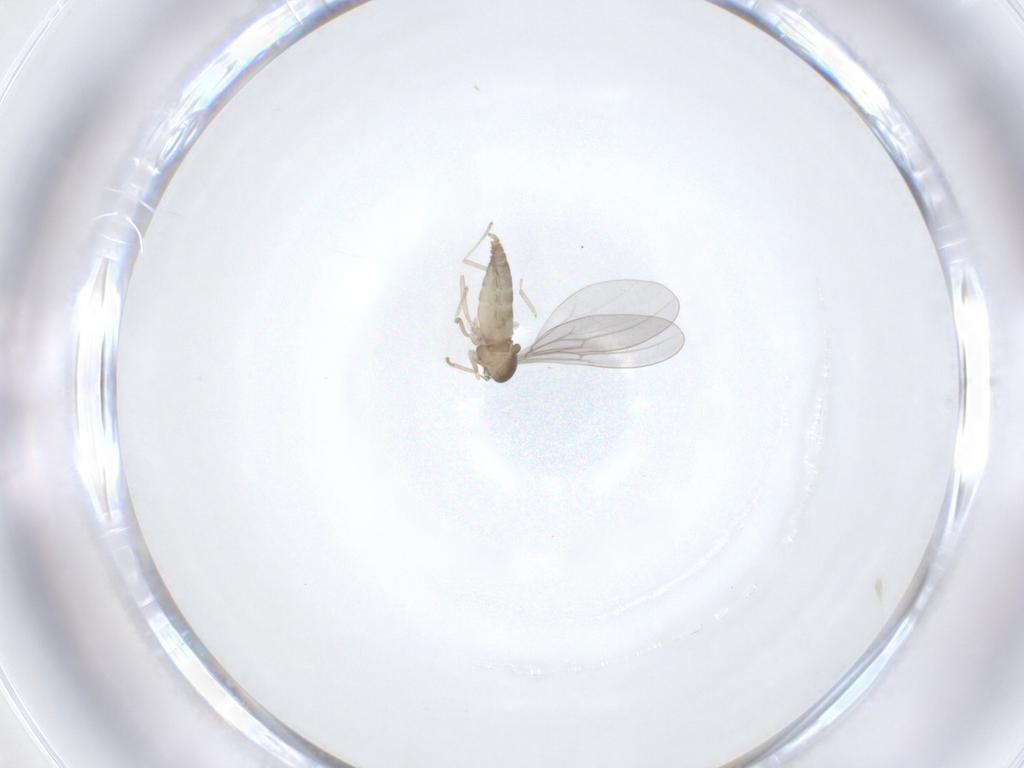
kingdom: Animalia
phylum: Arthropoda
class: Insecta
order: Diptera
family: Cecidomyiidae
